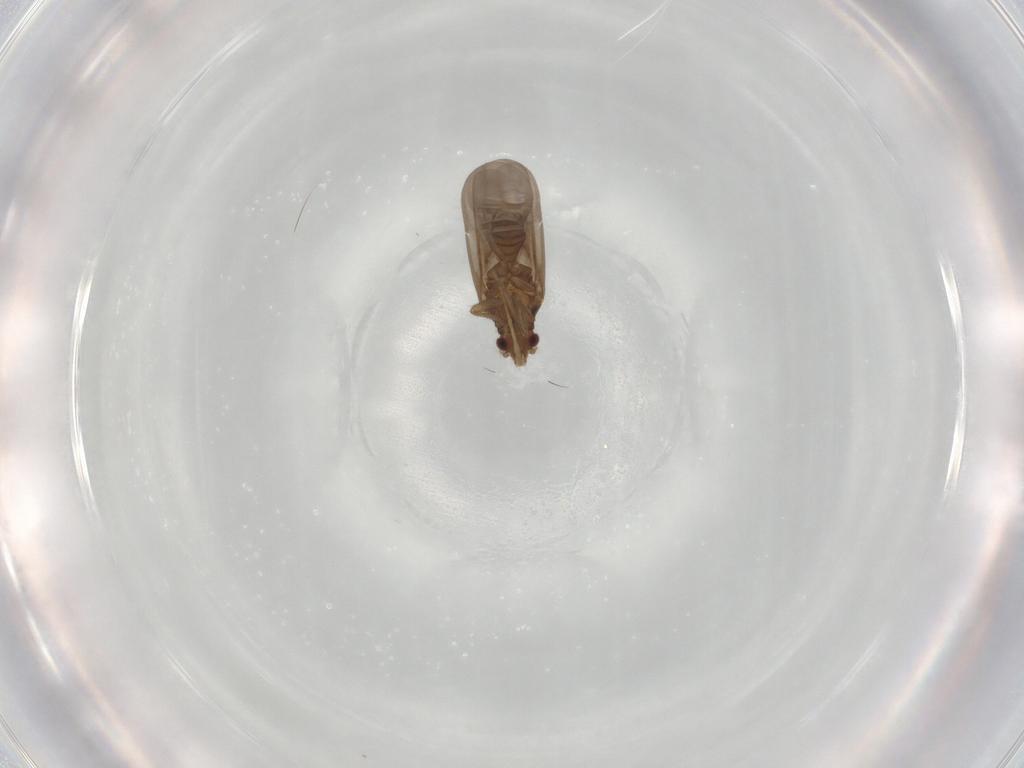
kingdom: Animalia
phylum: Arthropoda
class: Insecta
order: Hemiptera
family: Ceratocombidae
